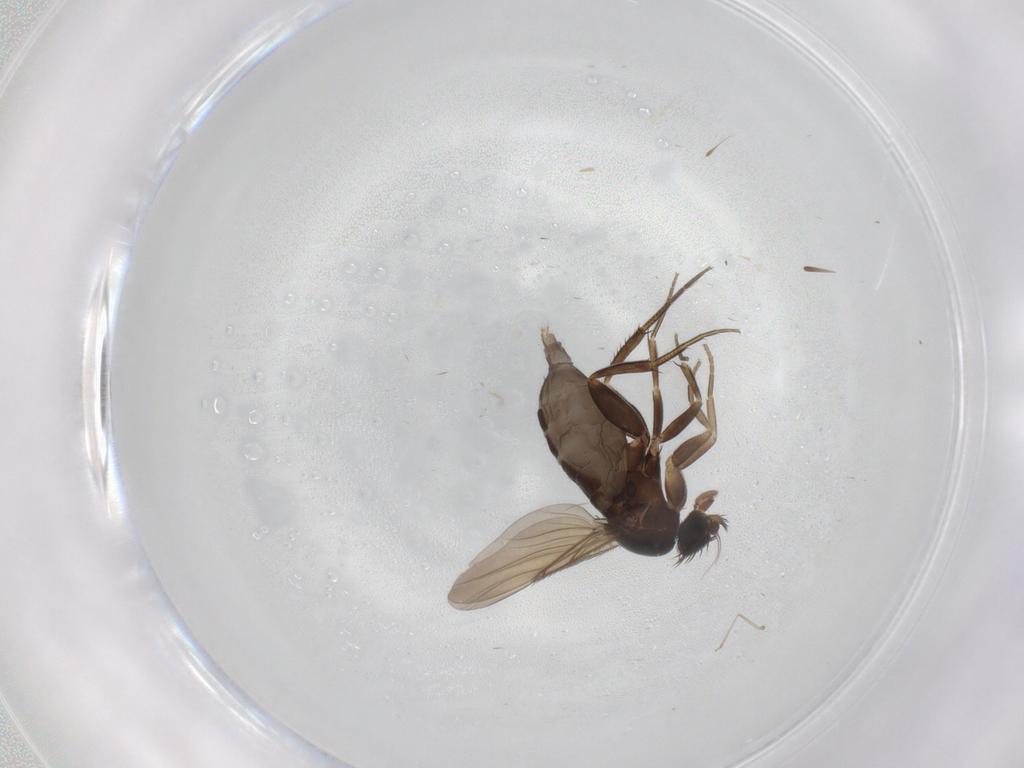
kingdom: Animalia
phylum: Arthropoda
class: Insecta
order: Diptera
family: Phoridae
